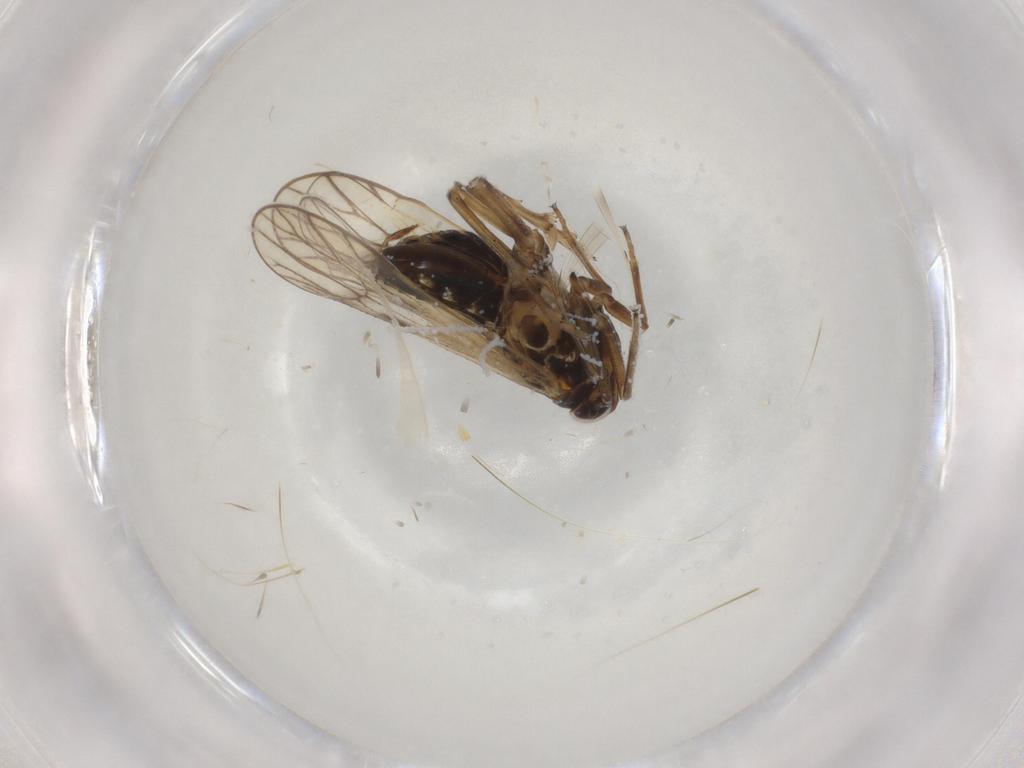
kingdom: Animalia
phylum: Arthropoda
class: Insecta
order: Hemiptera
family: Delphacidae
